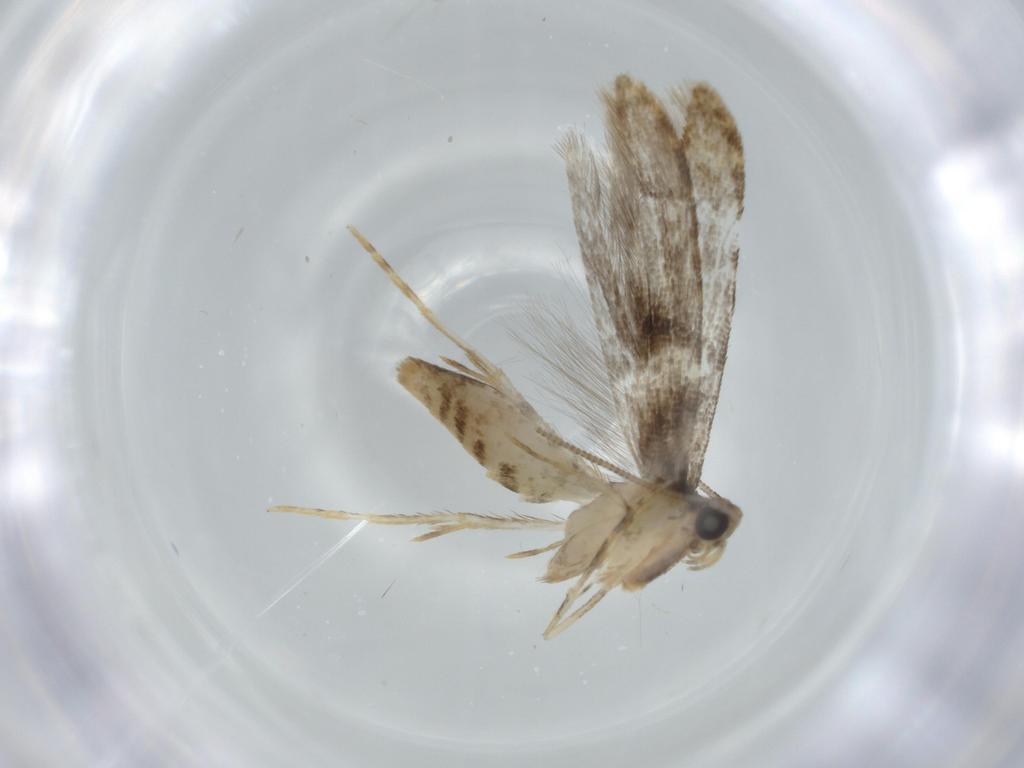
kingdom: Animalia
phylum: Arthropoda
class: Insecta
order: Lepidoptera
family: Tineidae
